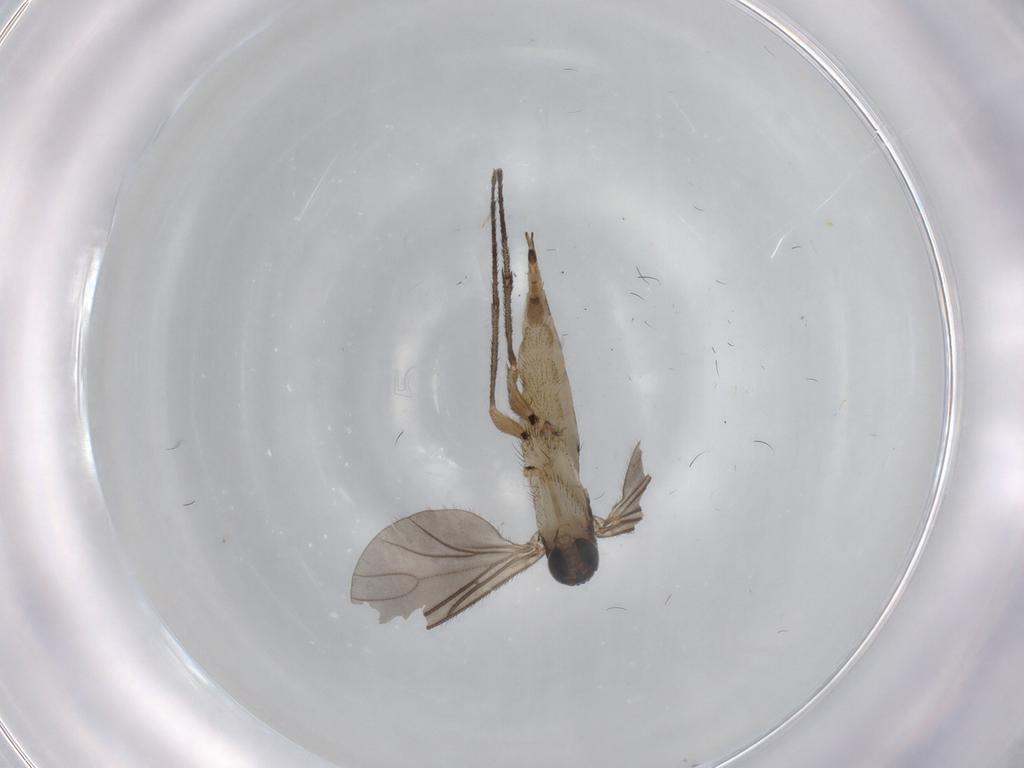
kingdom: Animalia
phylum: Arthropoda
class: Insecta
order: Diptera
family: Sciaridae
